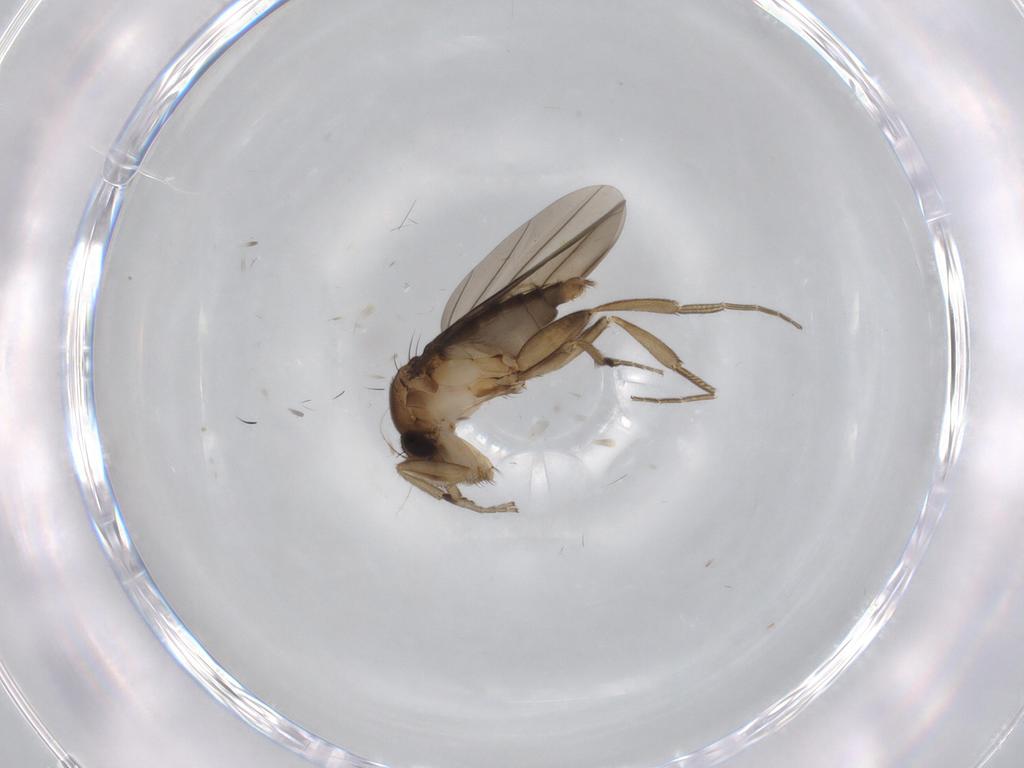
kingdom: Animalia
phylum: Arthropoda
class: Insecta
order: Diptera
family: Phoridae
